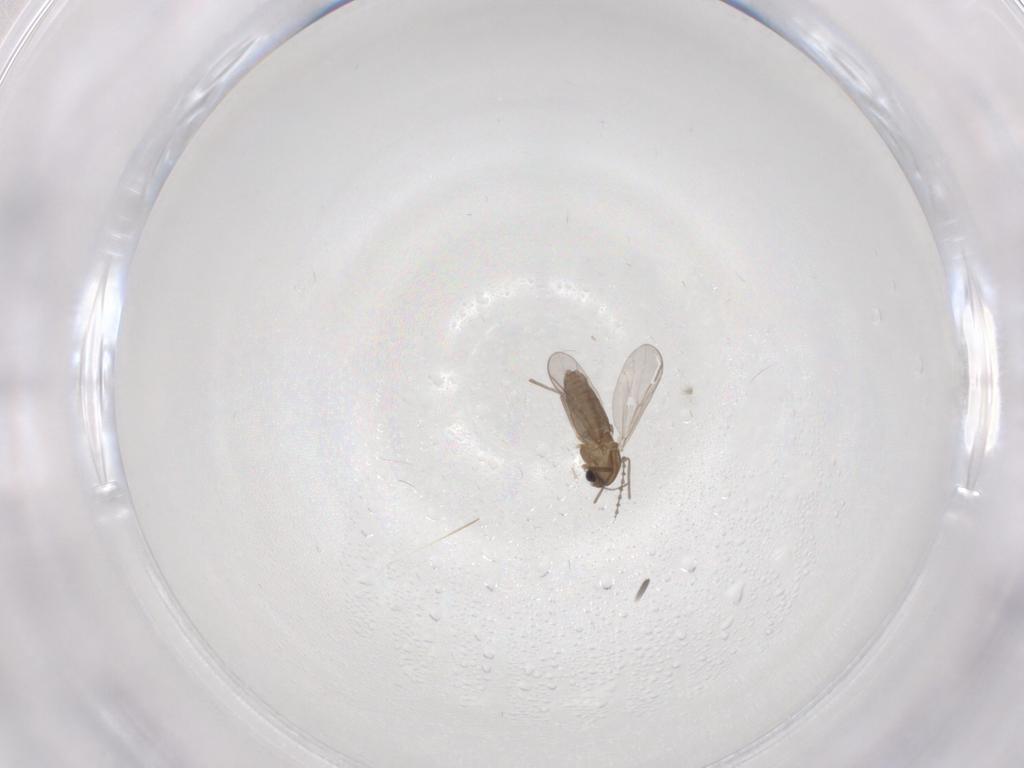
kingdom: Animalia
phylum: Arthropoda
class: Insecta
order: Diptera
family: Chironomidae
